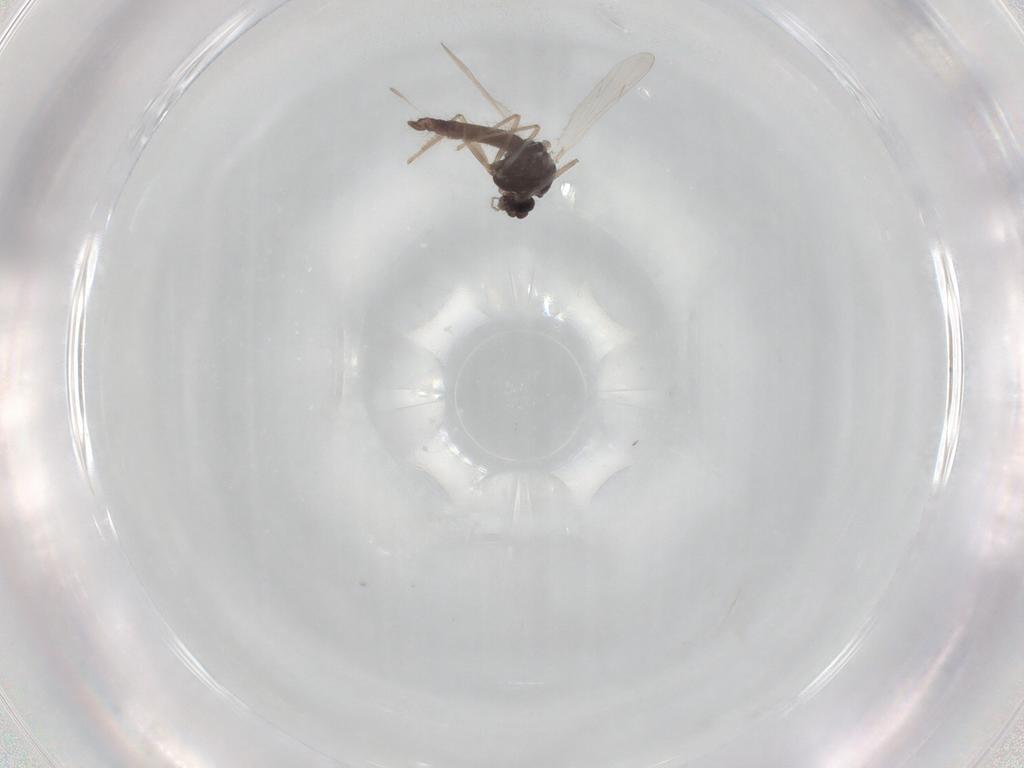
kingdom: Animalia
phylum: Arthropoda
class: Insecta
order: Diptera
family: Chironomidae
